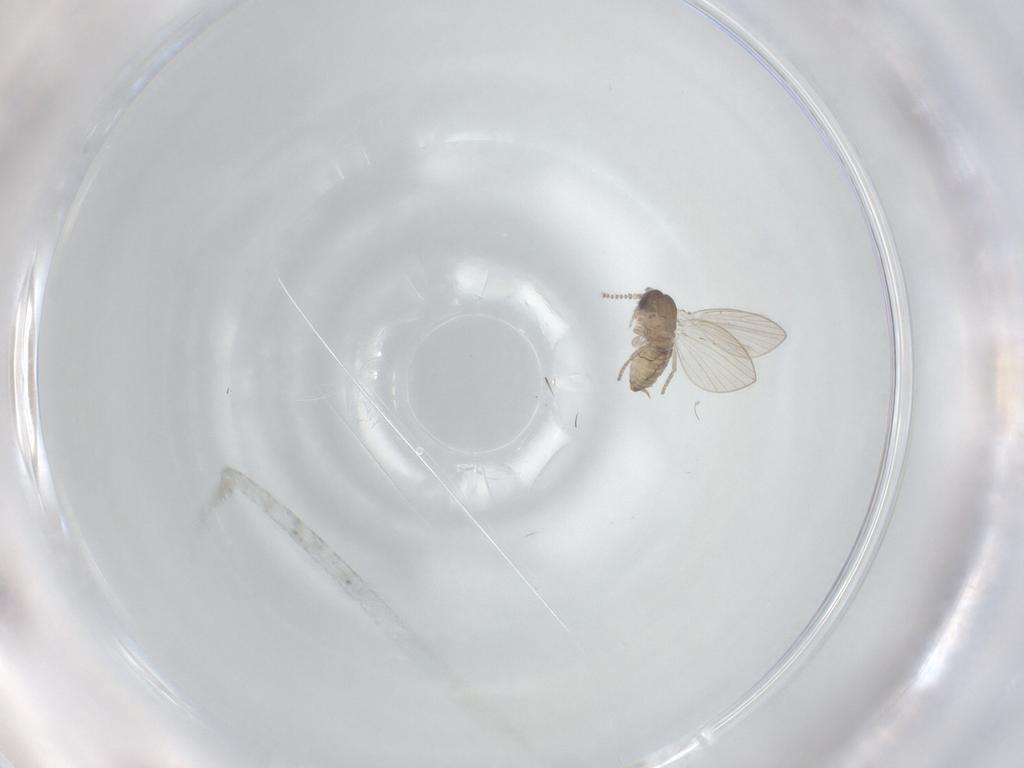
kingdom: Animalia
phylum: Arthropoda
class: Insecta
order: Diptera
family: Psychodidae
